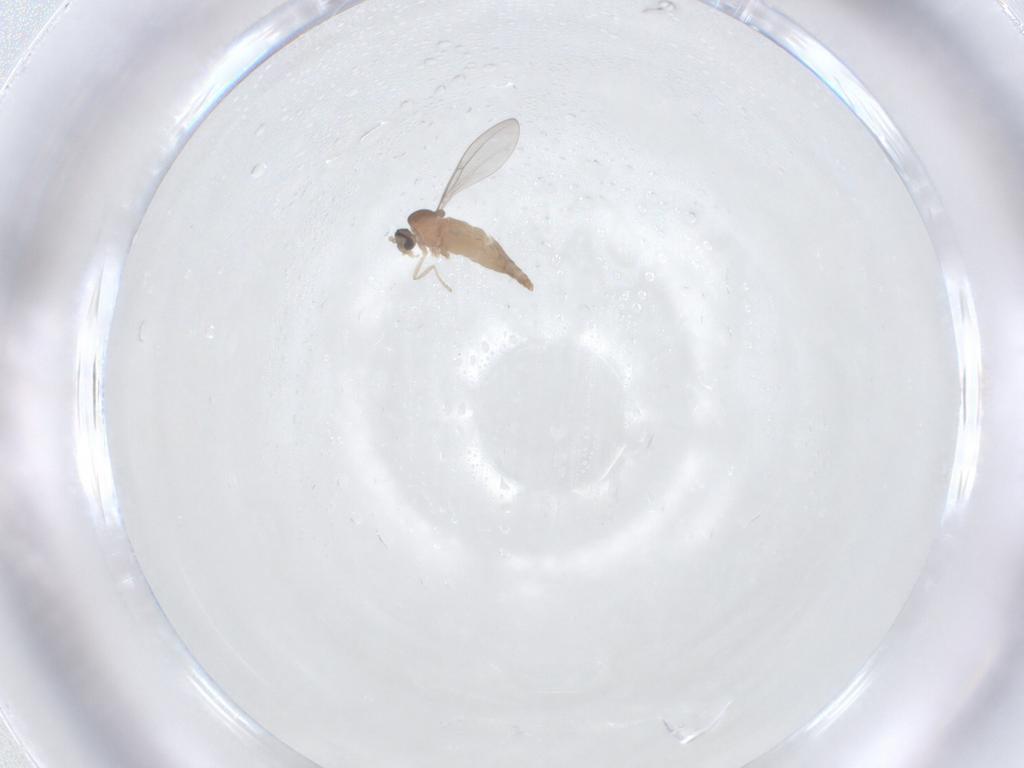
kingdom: Animalia
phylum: Arthropoda
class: Insecta
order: Diptera
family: Cecidomyiidae
